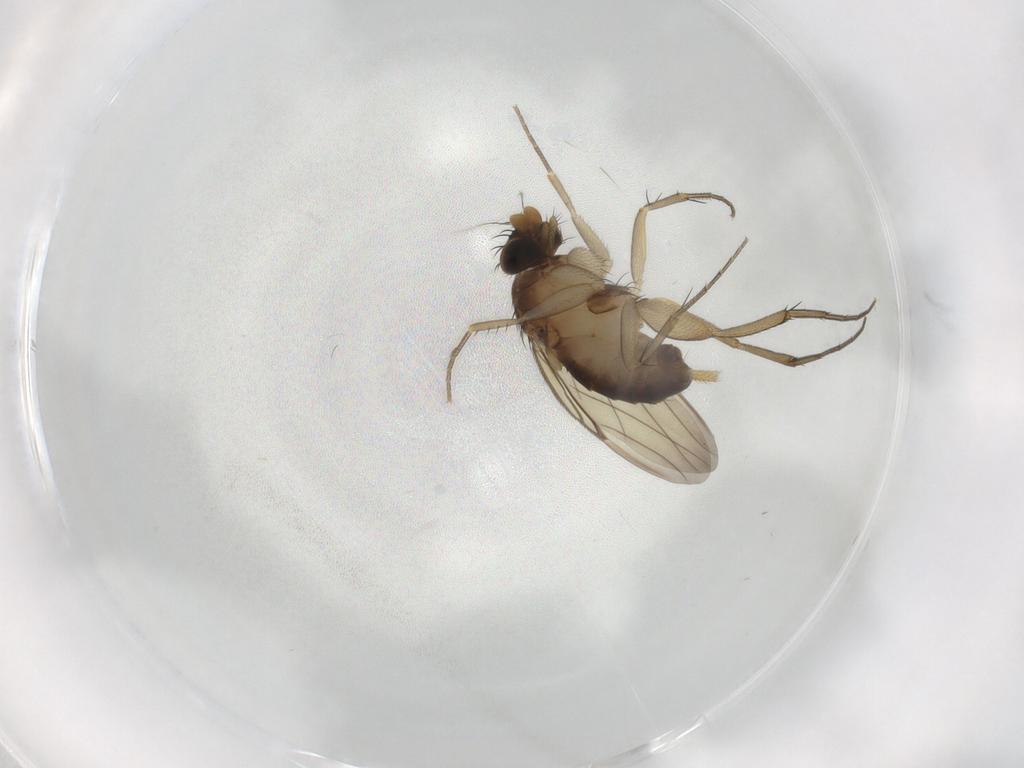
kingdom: Animalia
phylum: Arthropoda
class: Insecta
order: Diptera
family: Phoridae
